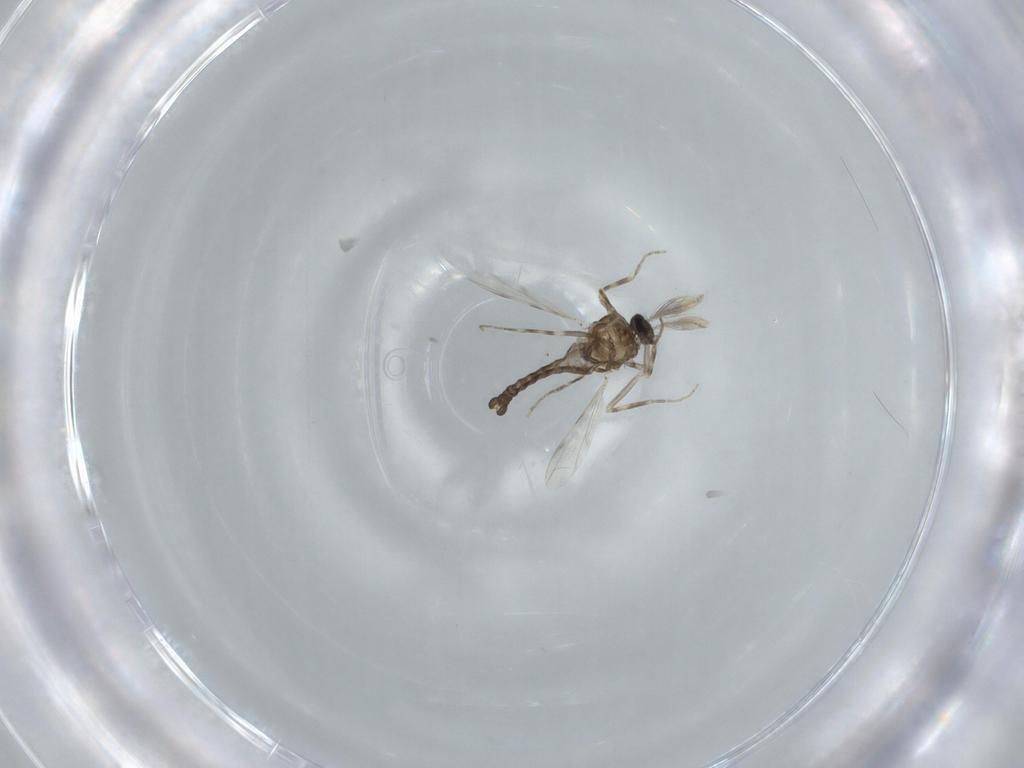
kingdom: Animalia
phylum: Arthropoda
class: Insecta
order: Diptera
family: Ceratopogonidae
